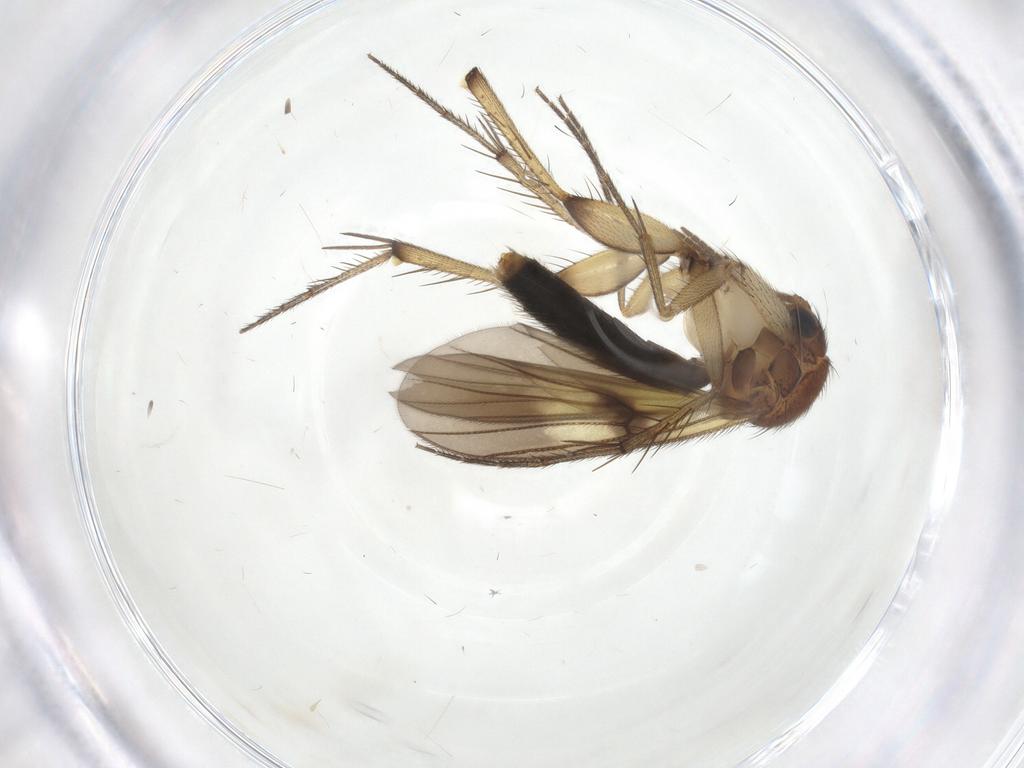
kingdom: Animalia
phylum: Arthropoda
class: Insecta
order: Diptera
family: Mycetophilidae
